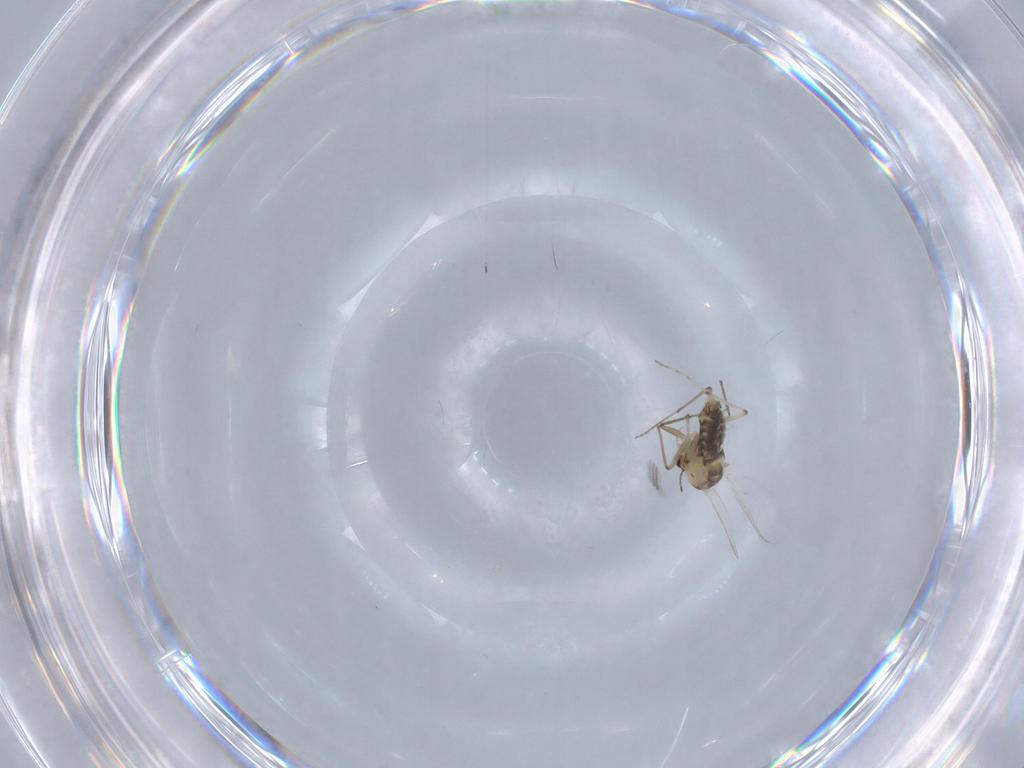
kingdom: Animalia
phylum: Arthropoda
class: Insecta
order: Diptera
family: Chironomidae
